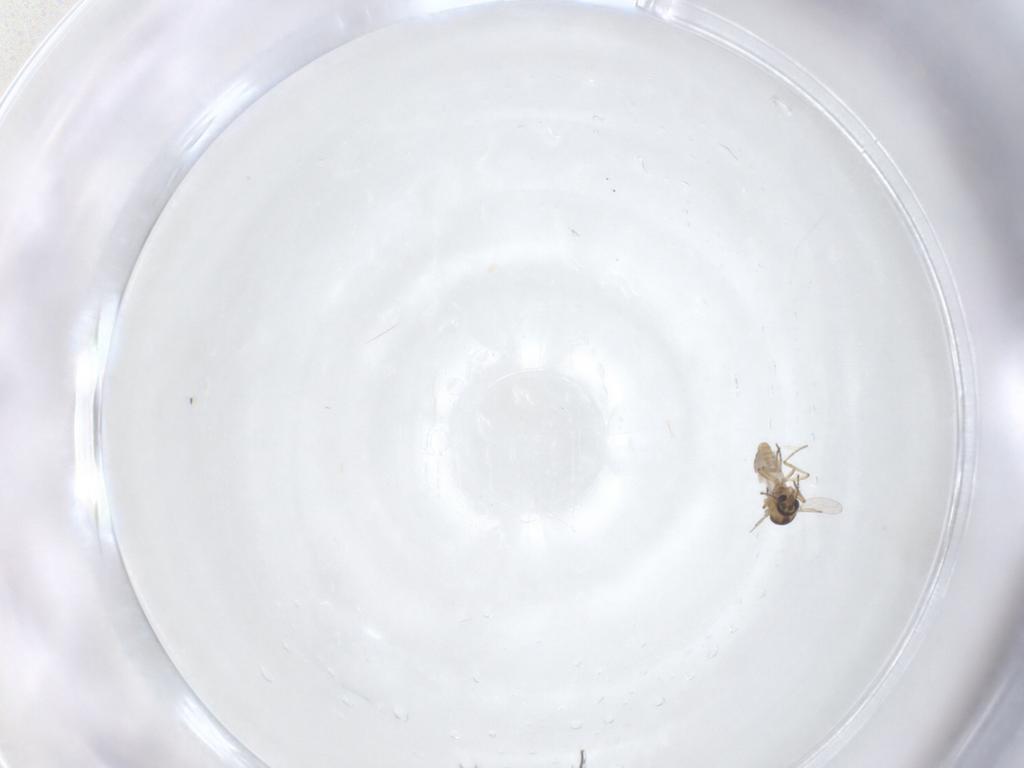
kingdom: Animalia
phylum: Arthropoda
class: Insecta
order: Diptera
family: Ceratopogonidae
